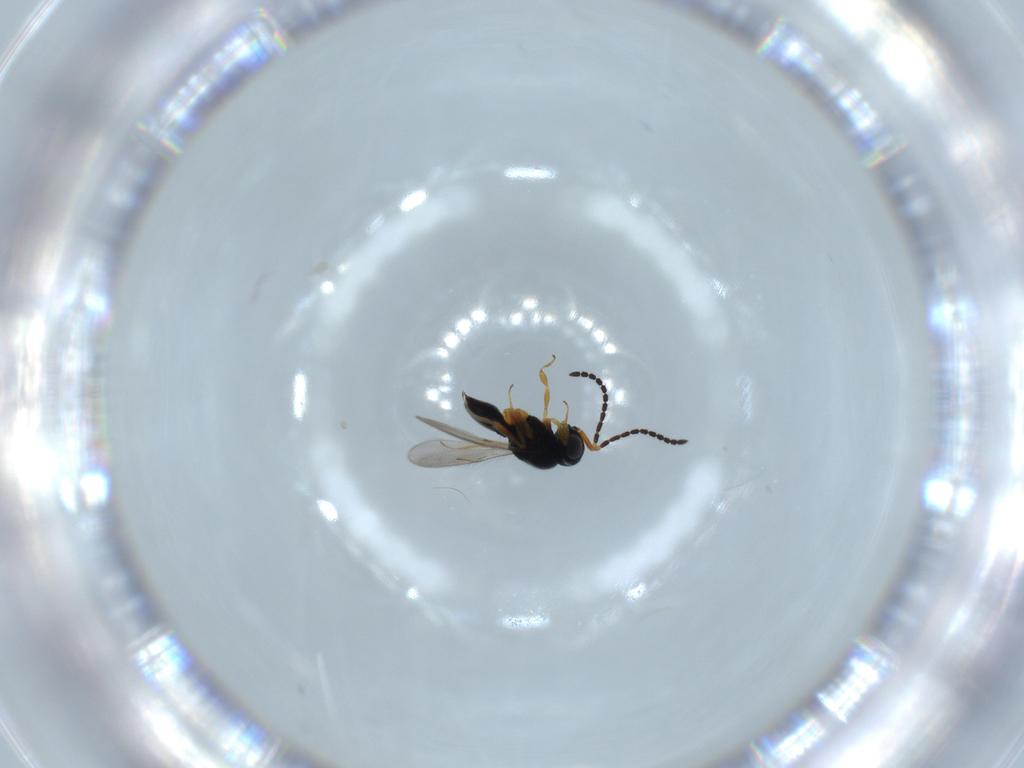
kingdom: Animalia
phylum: Arthropoda
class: Insecta
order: Hymenoptera
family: Scelionidae
